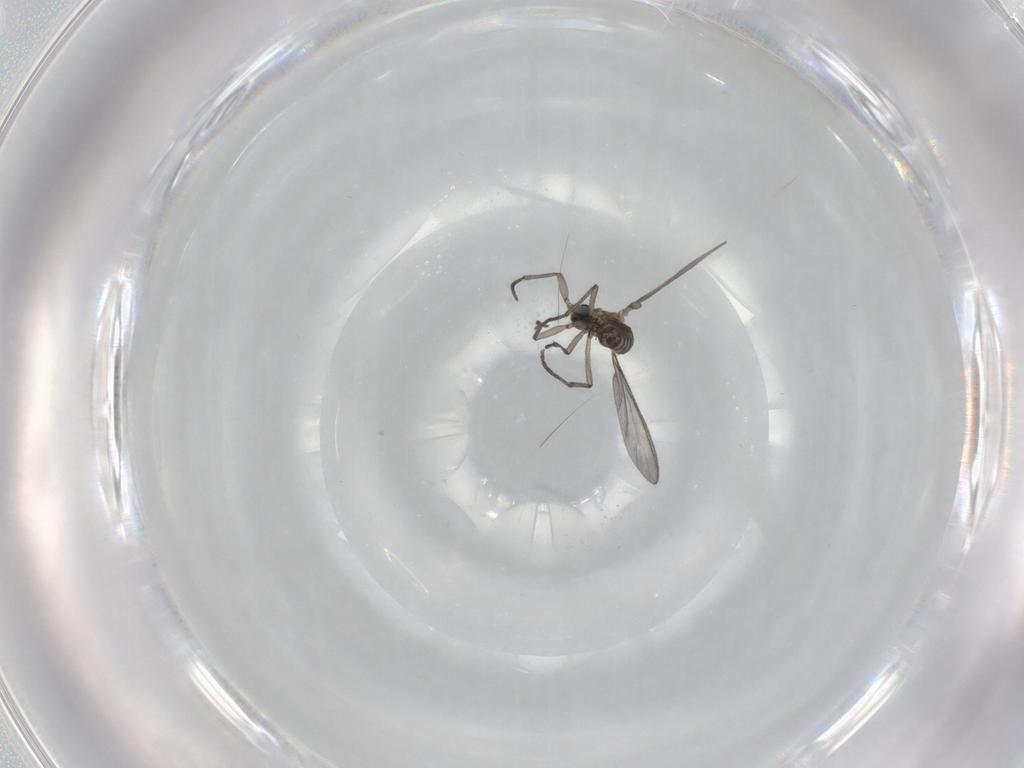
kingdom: Animalia
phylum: Arthropoda
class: Insecta
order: Diptera
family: Sciaridae
